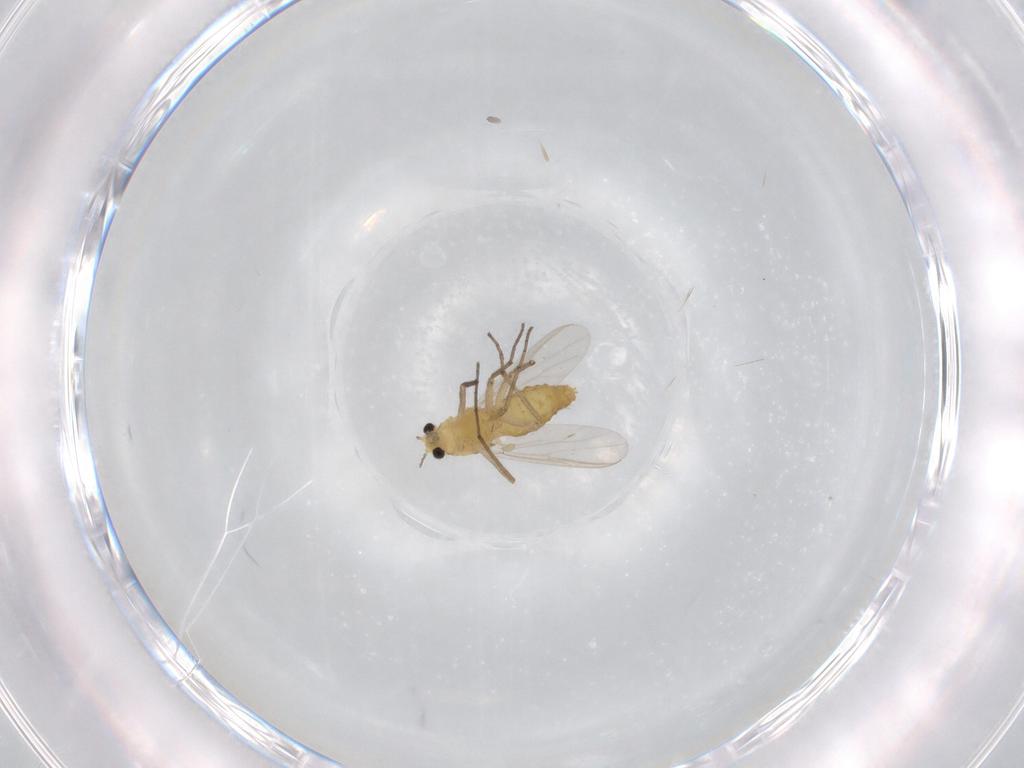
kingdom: Animalia
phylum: Arthropoda
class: Insecta
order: Diptera
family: Chironomidae
